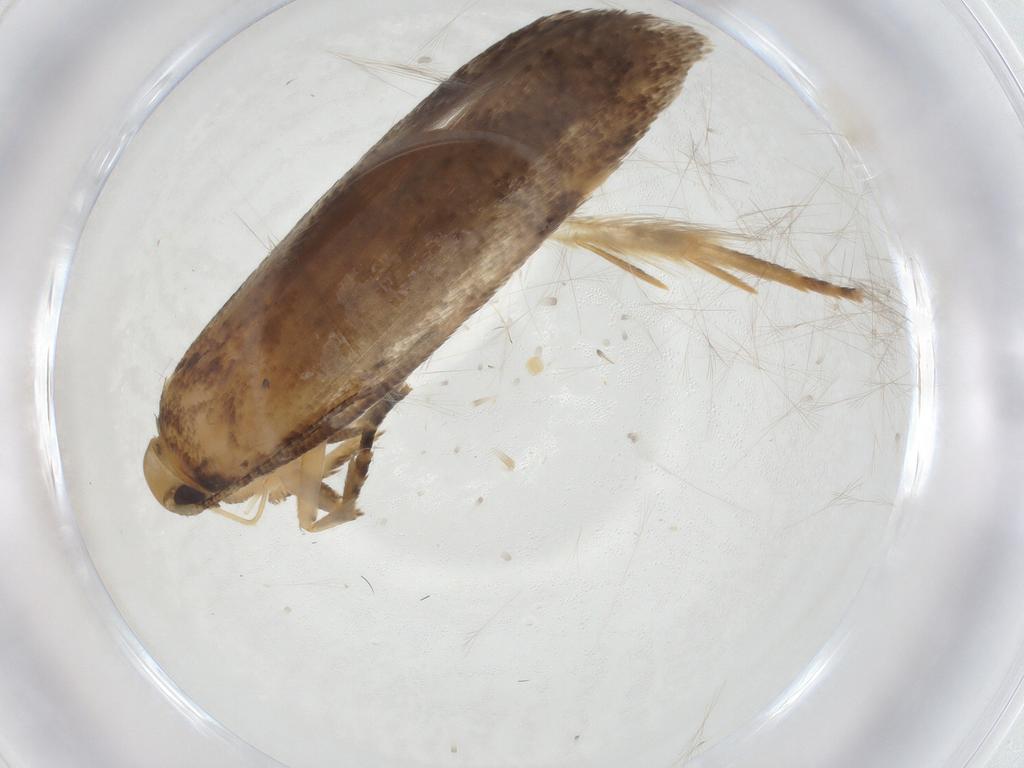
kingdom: Animalia
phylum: Arthropoda
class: Insecta
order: Lepidoptera
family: Gelechiidae
